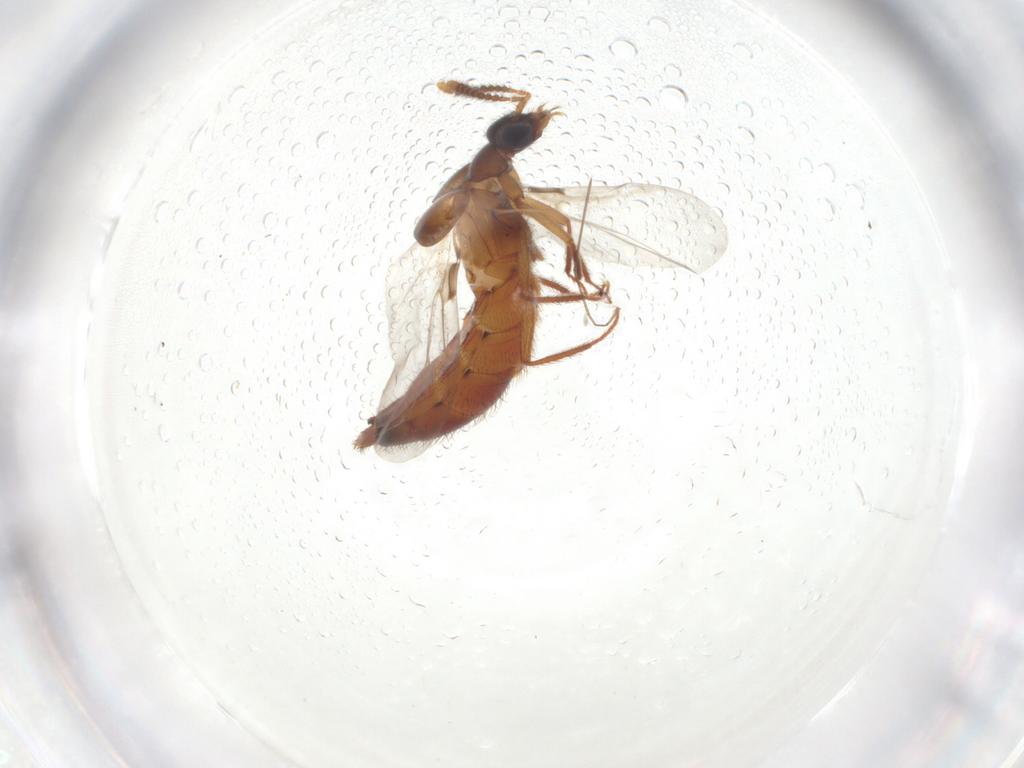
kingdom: Animalia
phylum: Arthropoda
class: Insecta
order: Coleoptera
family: Staphylinidae
